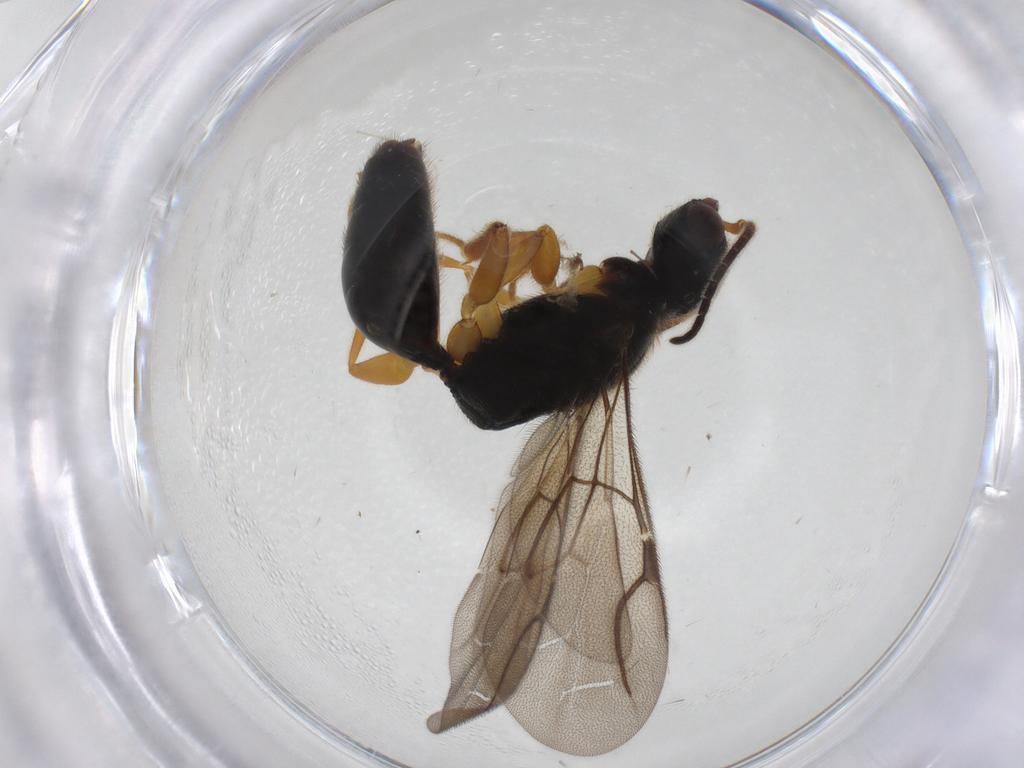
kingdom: Animalia
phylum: Arthropoda
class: Insecta
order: Hymenoptera
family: Bethylidae
